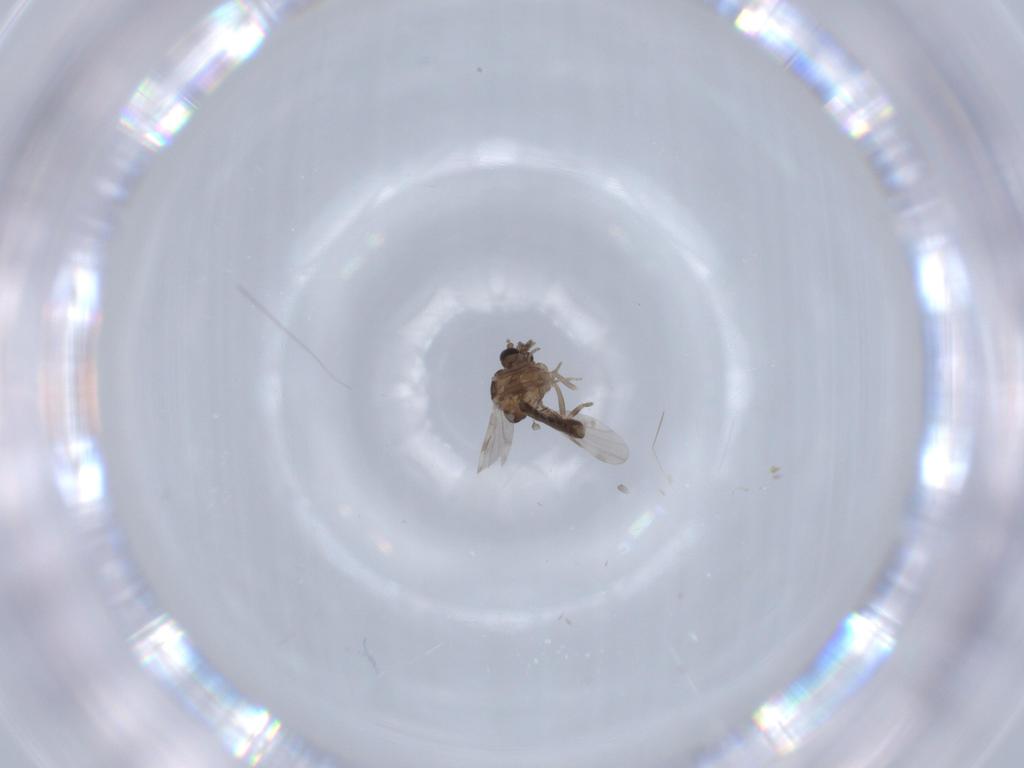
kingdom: Animalia
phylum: Arthropoda
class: Insecta
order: Diptera
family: Ceratopogonidae
